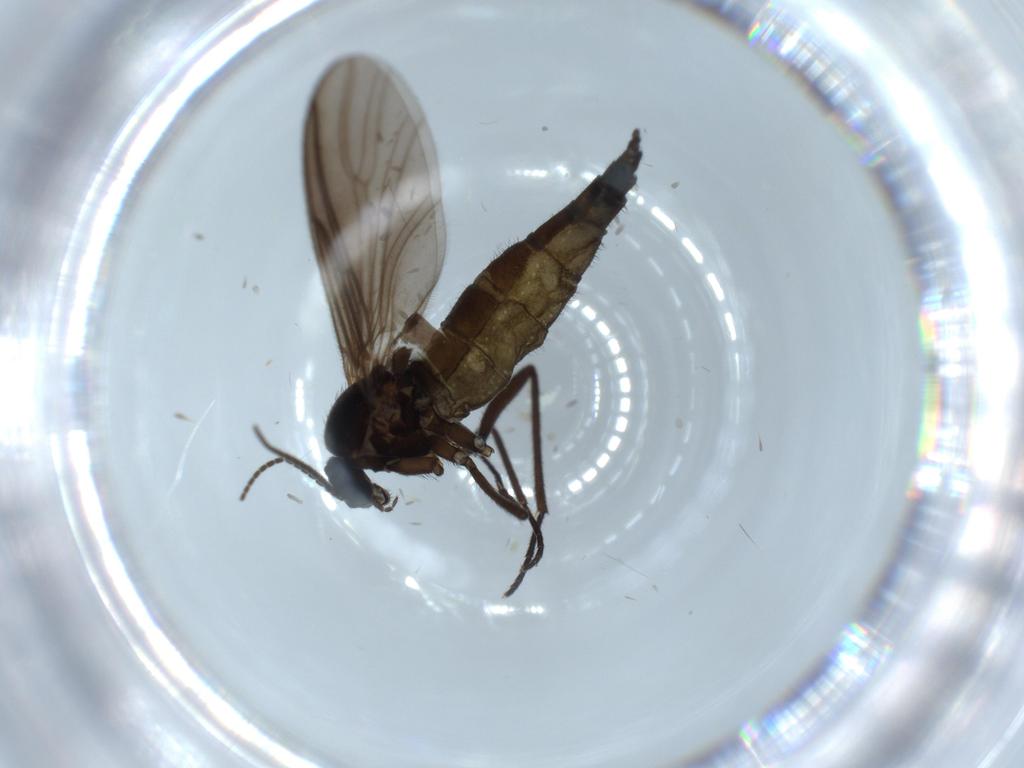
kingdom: Animalia
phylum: Arthropoda
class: Insecta
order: Diptera
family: Sciaridae
